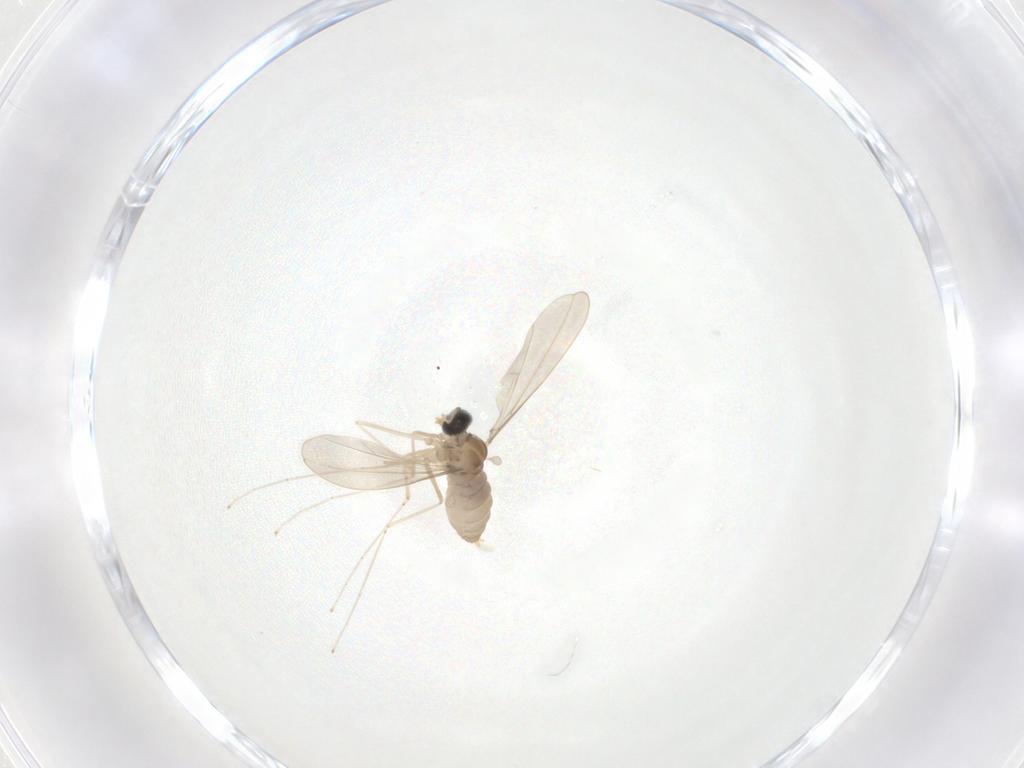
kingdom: Animalia
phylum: Arthropoda
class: Insecta
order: Diptera
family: Cecidomyiidae
